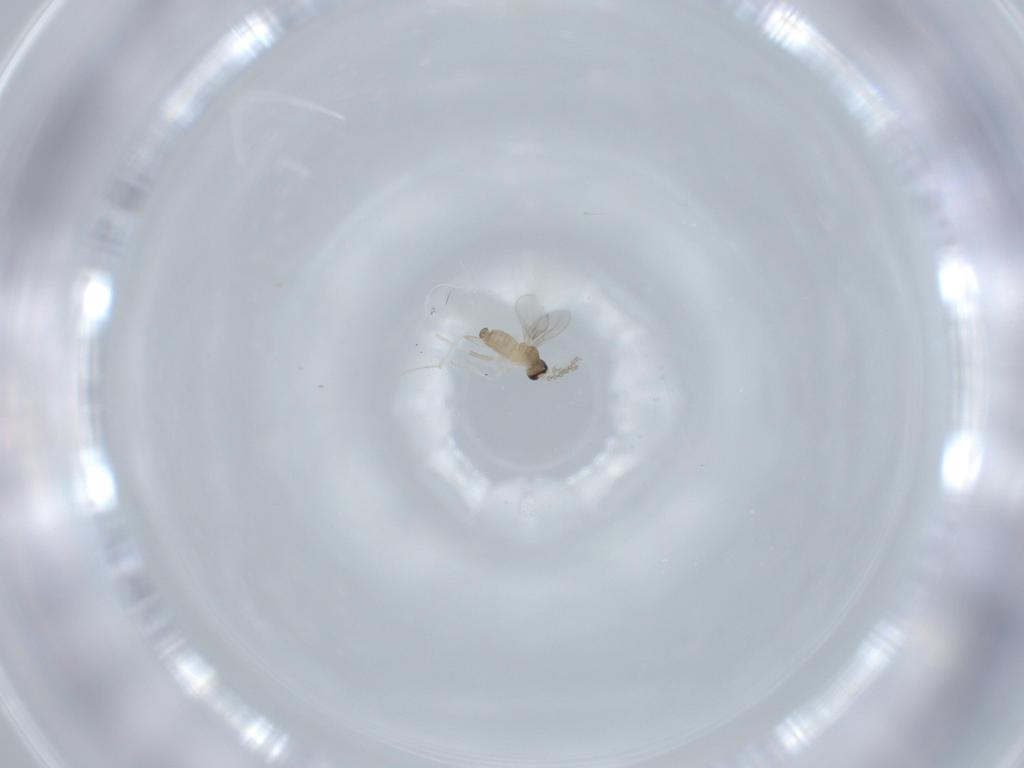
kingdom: Animalia
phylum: Arthropoda
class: Insecta
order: Diptera
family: Cecidomyiidae
